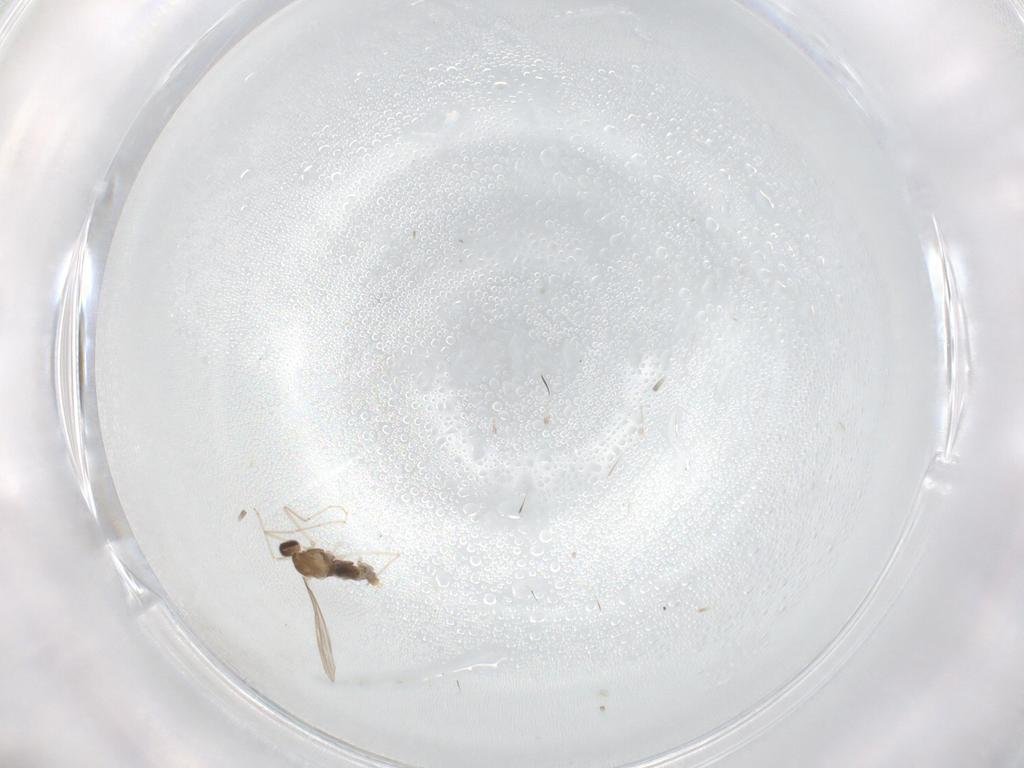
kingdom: Animalia
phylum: Arthropoda
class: Insecta
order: Diptera
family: Cecidomyiidae
